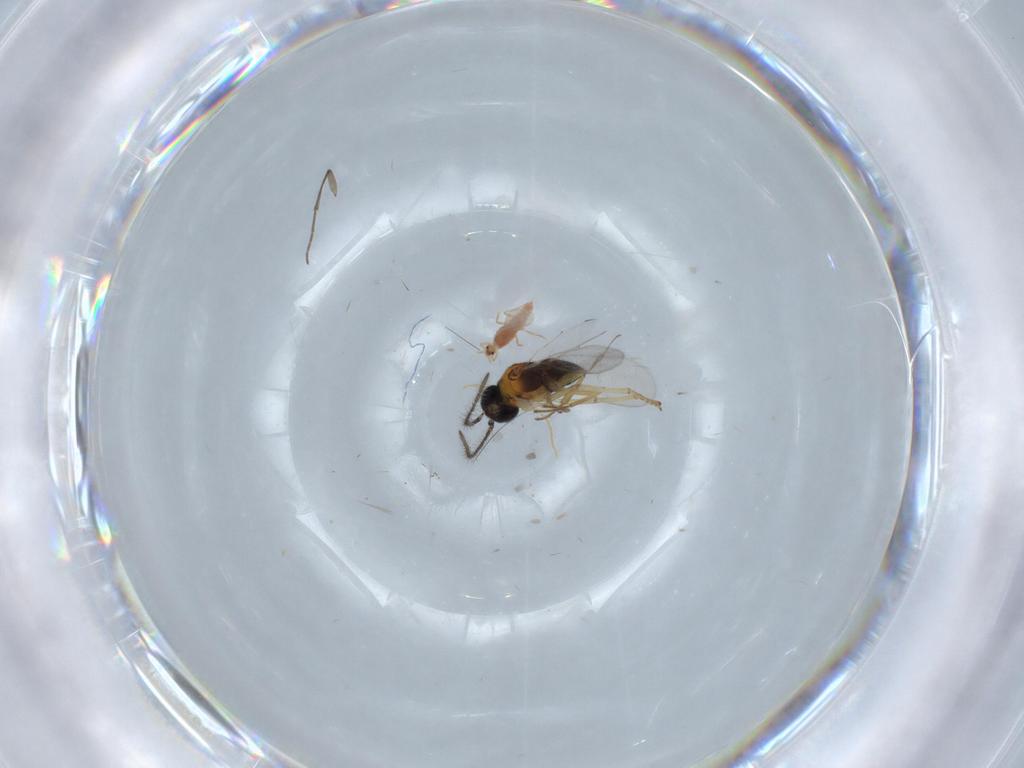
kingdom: Animalia
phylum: Arthropoda
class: Insecta
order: Hymenoptera
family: Encyrtidae
